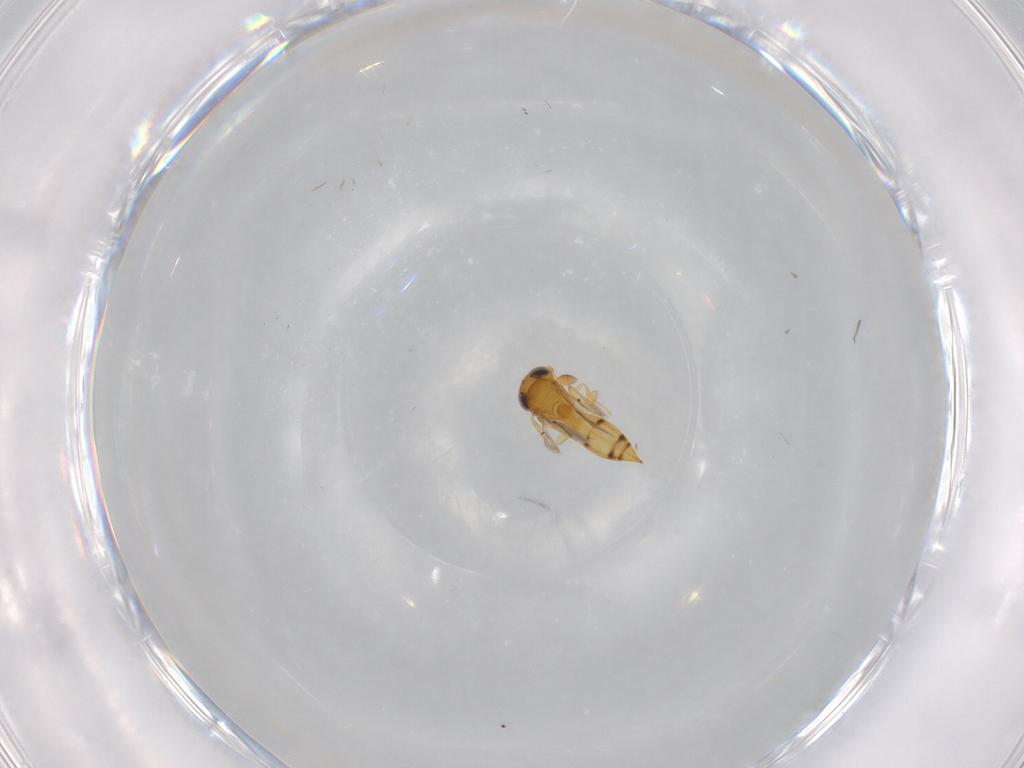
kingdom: Animalia
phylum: Arthropoda
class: Insecta
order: Hymenoptera
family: Scelionidae
